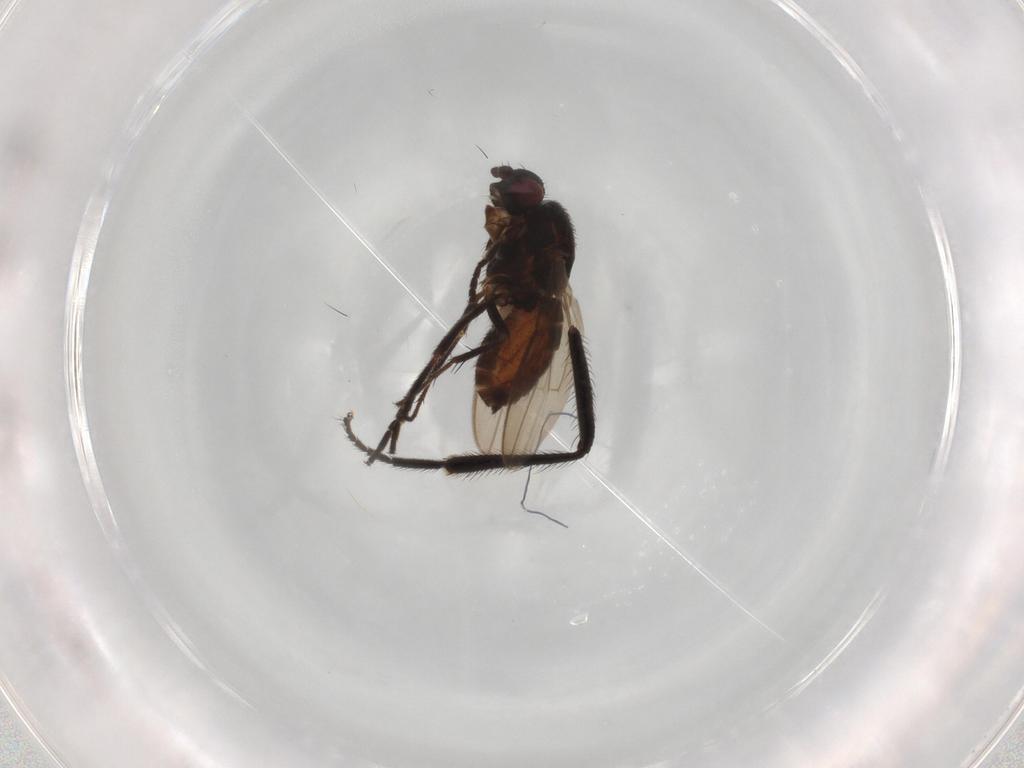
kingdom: Animalia
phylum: Arthropoda
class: Insecta
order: Diptera
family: Sphaeroceridae
